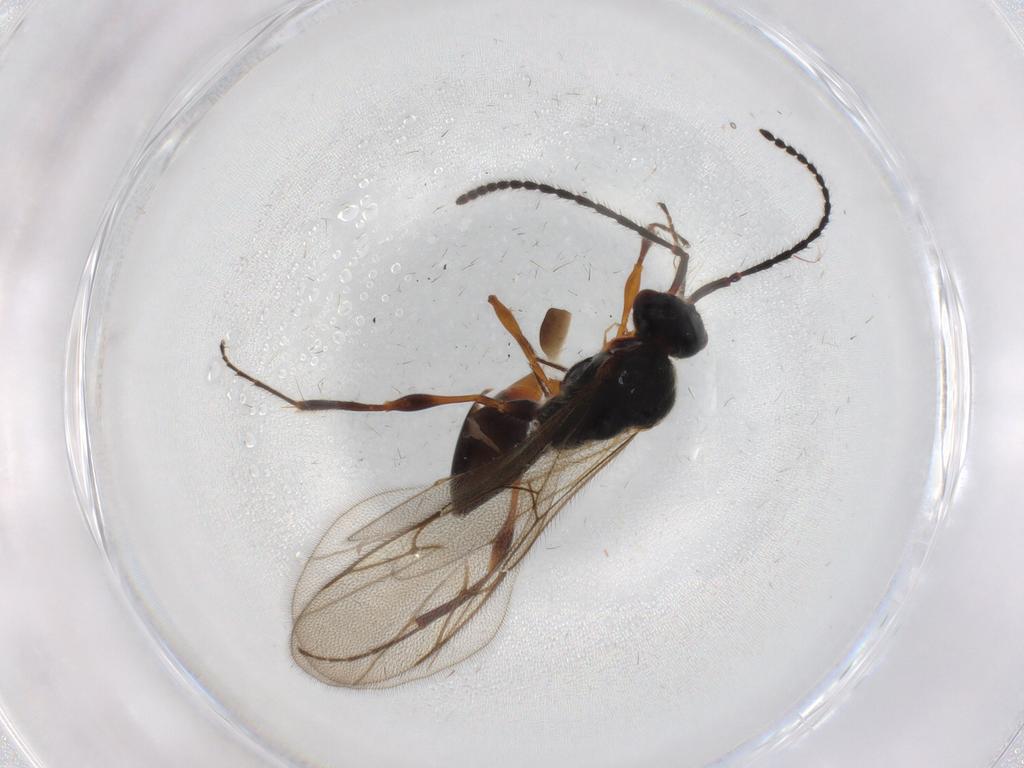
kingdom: Animalia
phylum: Arthropoda
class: Insecta
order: Hymenoptera
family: Diapriidae
